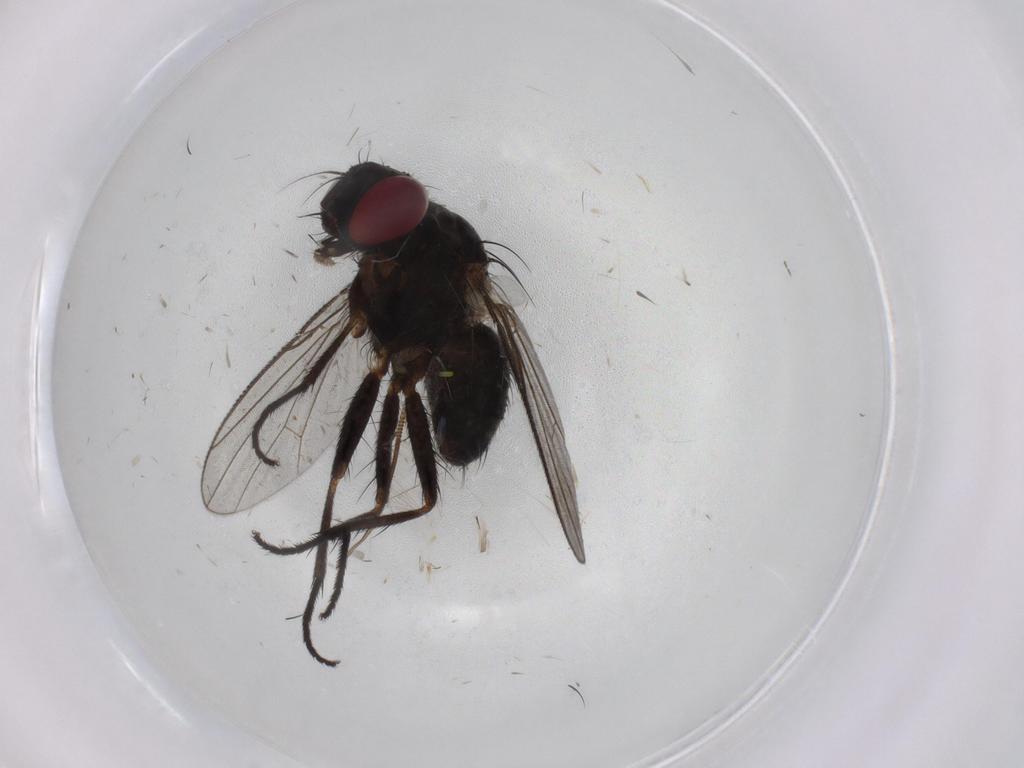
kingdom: Animalia
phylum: Arthropoda
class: Insecta
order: Diptera
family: Muscidae
